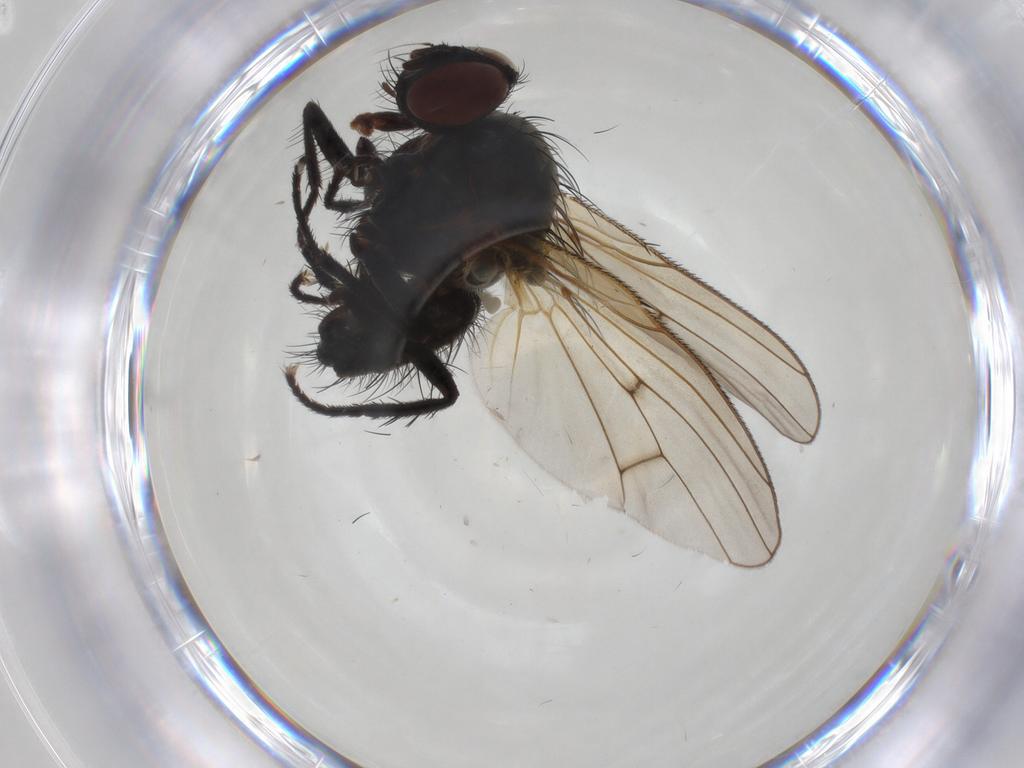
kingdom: Animalia
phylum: Arthropoda
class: Insecta
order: Diptera
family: Anthomyiidae
